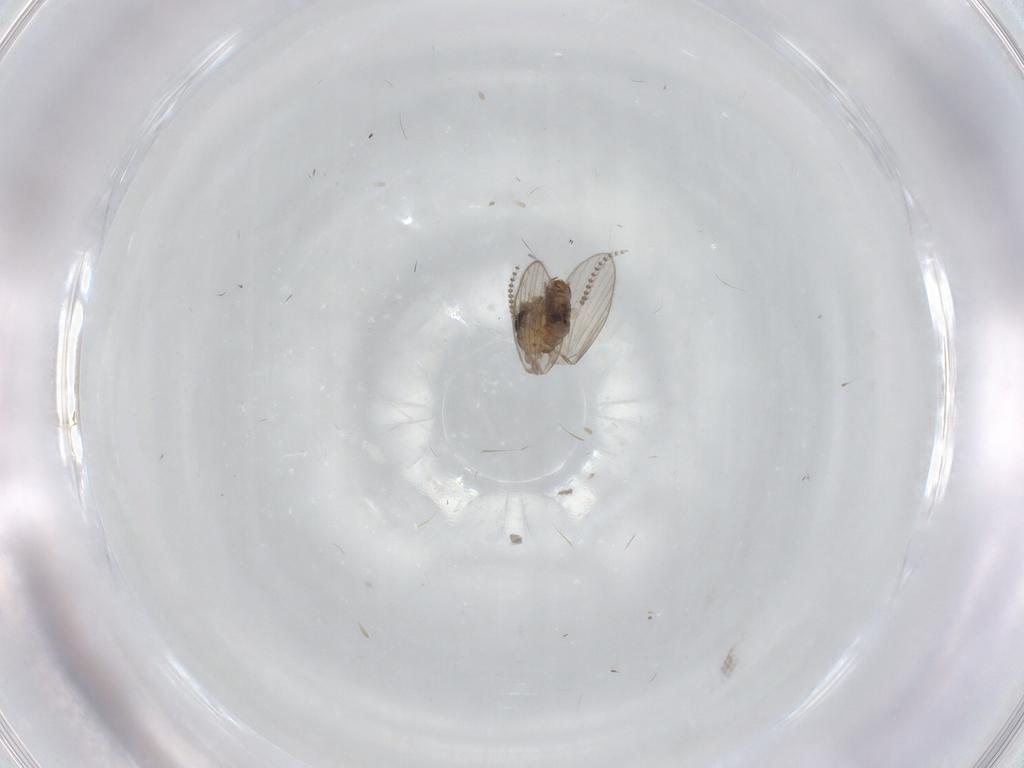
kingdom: Animalia
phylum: Arthropoda
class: Insecta
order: Diptera
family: Psychodidae
